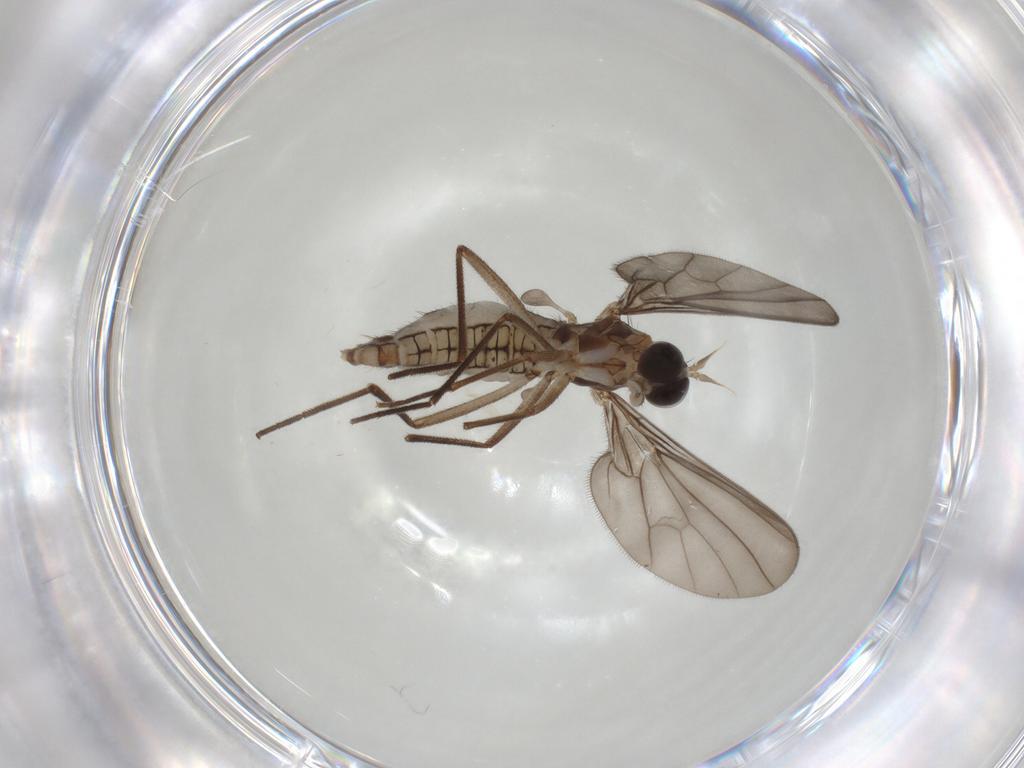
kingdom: Animalia
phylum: Arthropoda
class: Insecta
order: Diptera
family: Sciaridae
